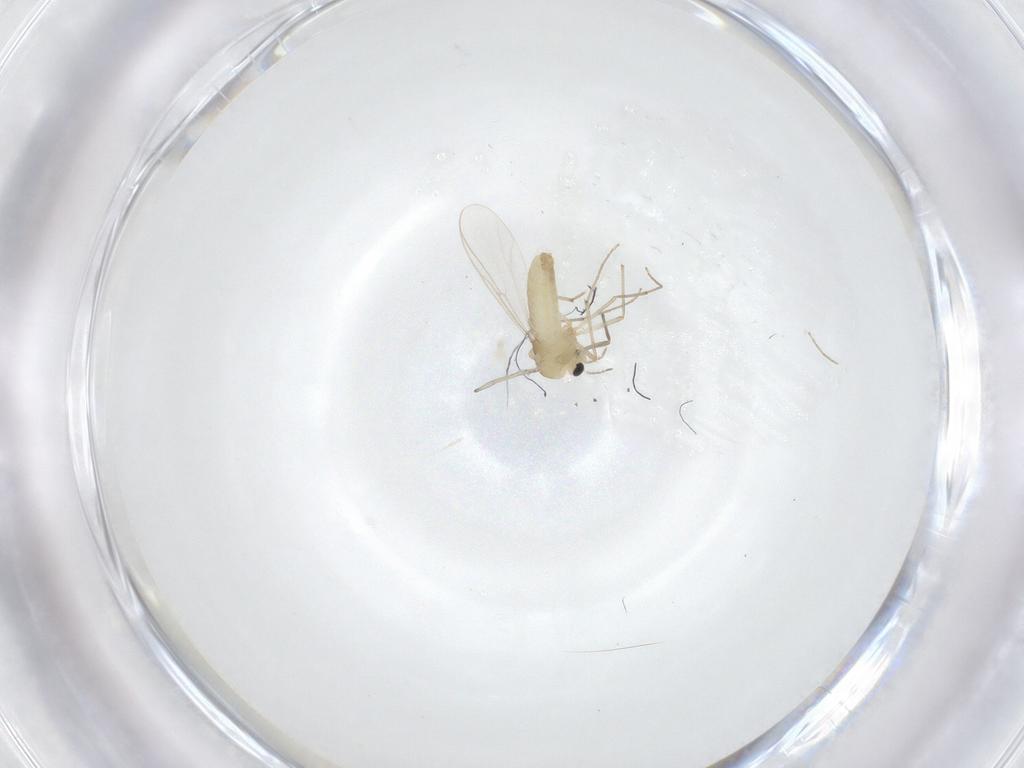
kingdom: Animalia
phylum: Arthropoda
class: Insecta
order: Diptera
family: Chironomidae
